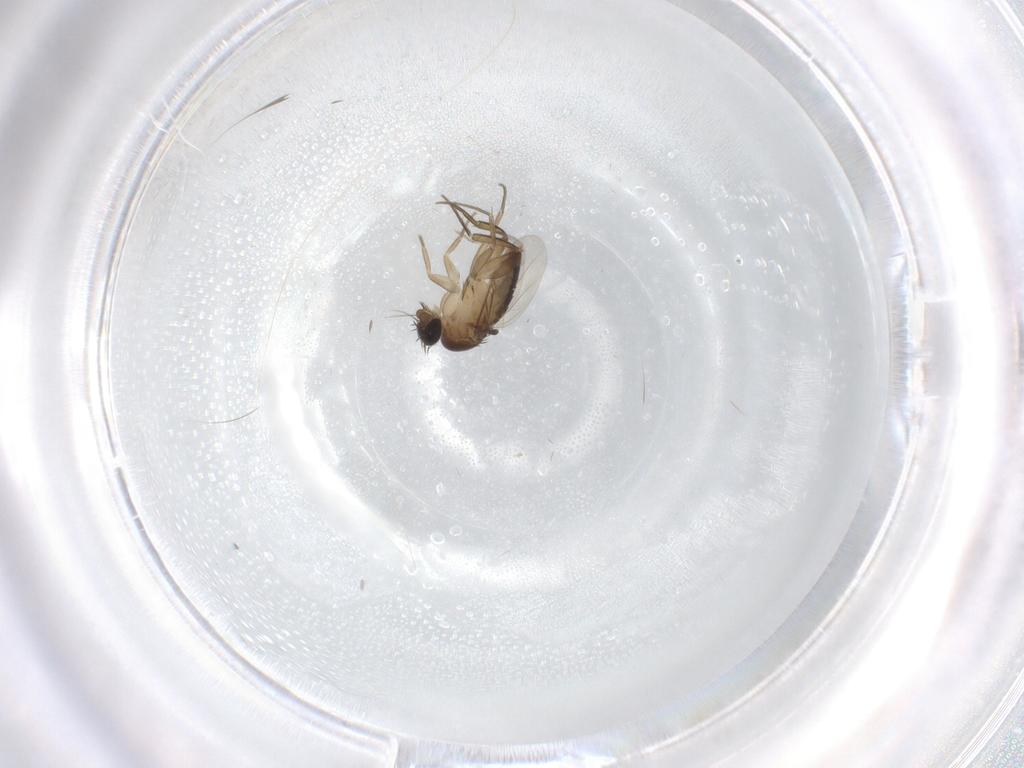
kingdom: Animalia
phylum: Arthropoda
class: Insecta
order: Diptera
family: Phoridae
